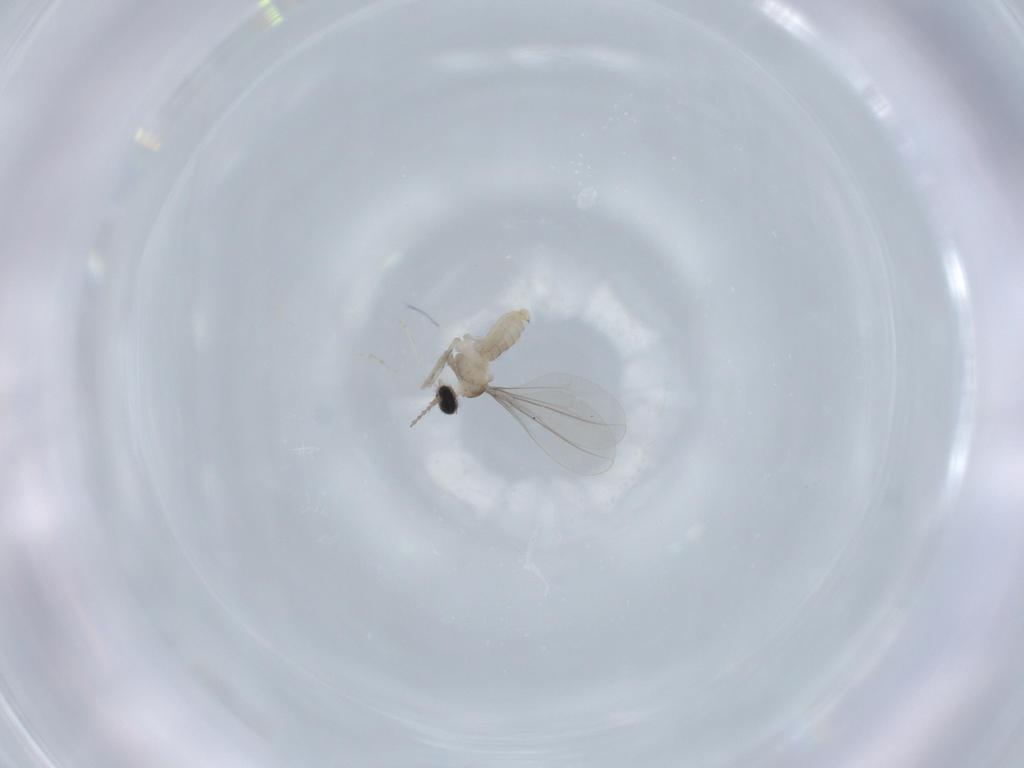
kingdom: Animalia
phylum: Arthropoda
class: Insecta
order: Diptera
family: Cecidomyiidae
